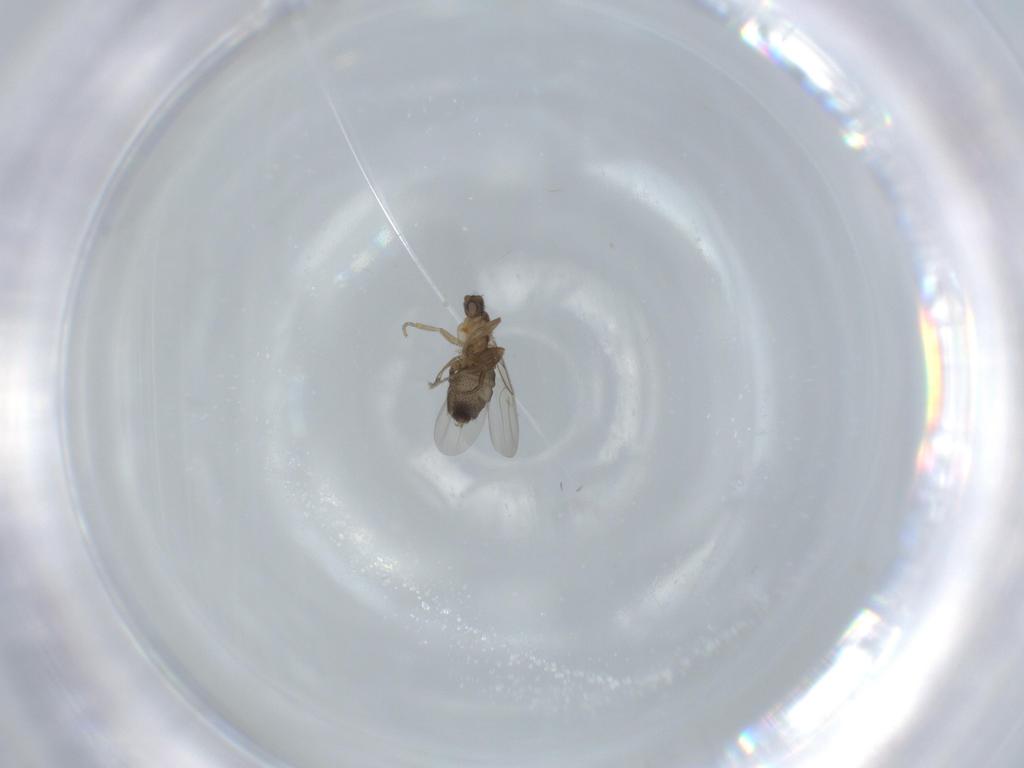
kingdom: Animalia
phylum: Arthropoda
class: Insecta
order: Diptera
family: Phoridae
